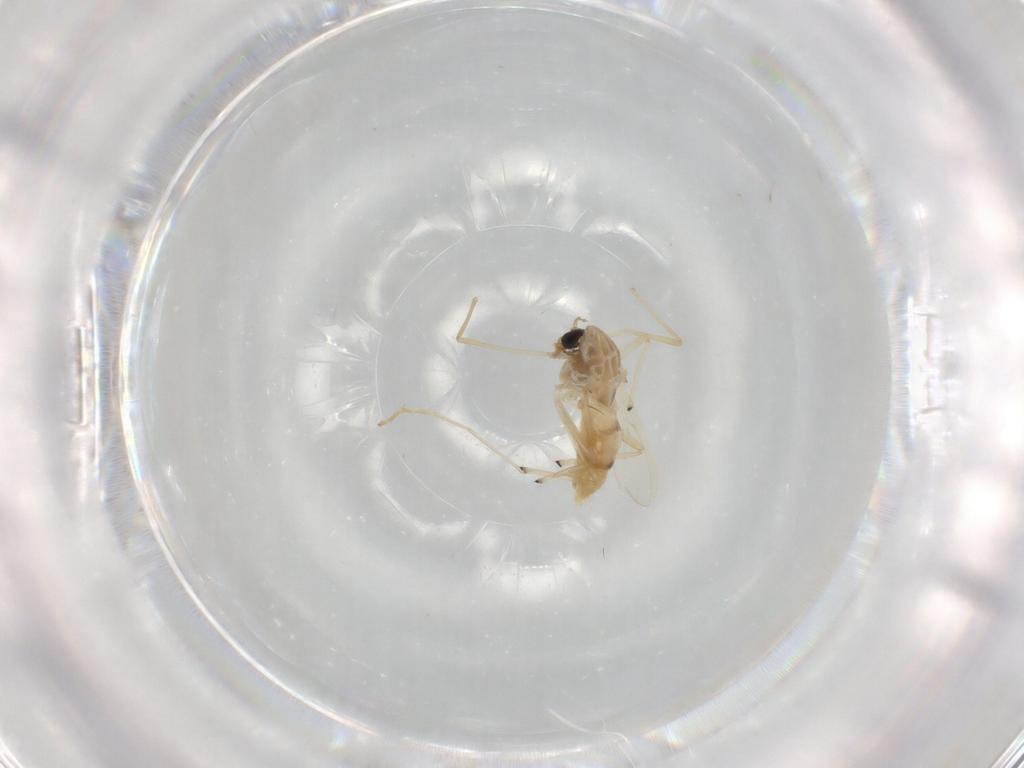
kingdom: Animalia
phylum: Arthropoda
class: Insecta
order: Diptera
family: Chironomidae
